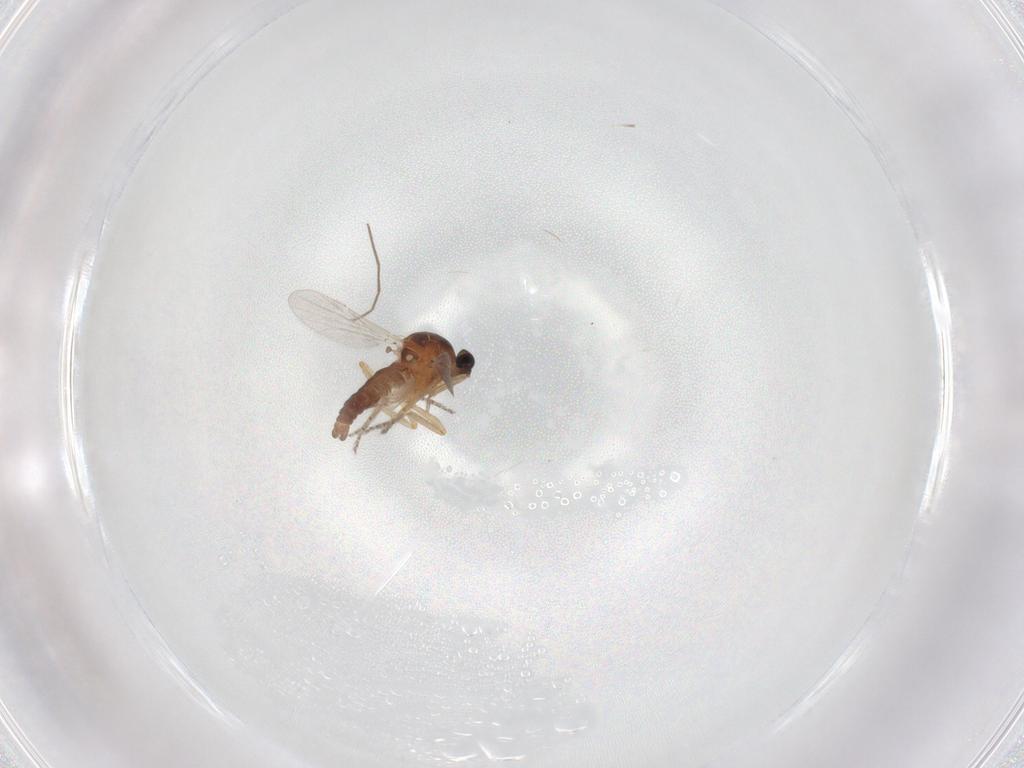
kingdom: Animalia
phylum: Arthropoda
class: Insecta
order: Diptera
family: Ceratopogonidae
